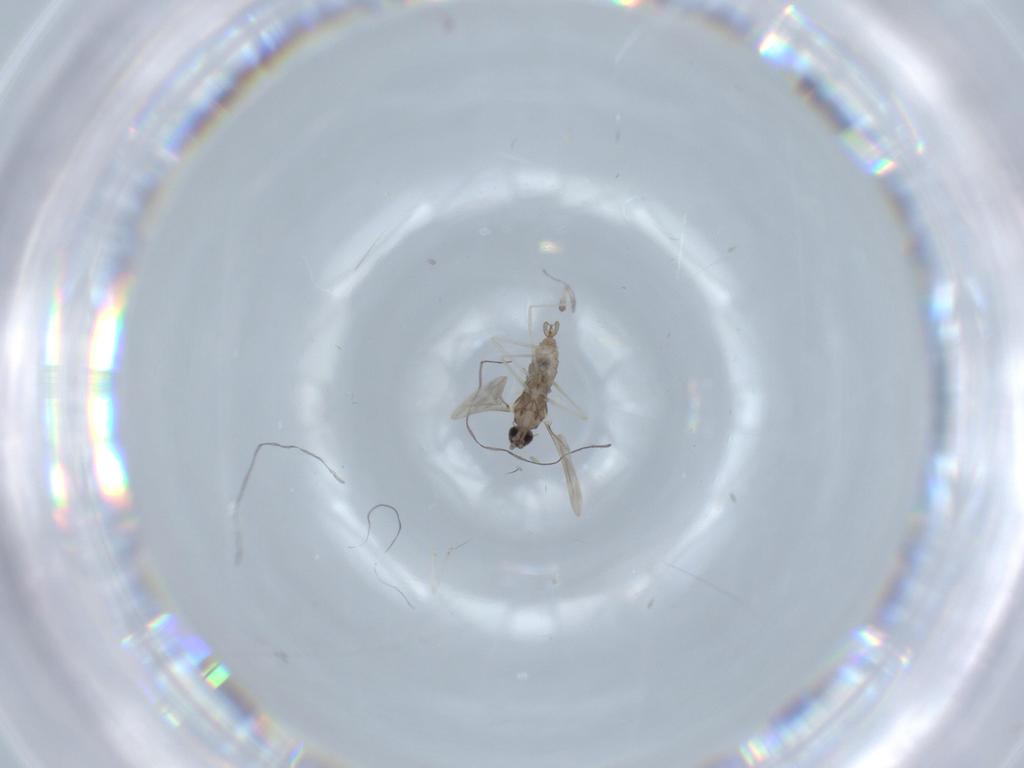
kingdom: Animalia
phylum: Arthropoda
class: Insecta
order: Diptera
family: Cecidomyiidae
